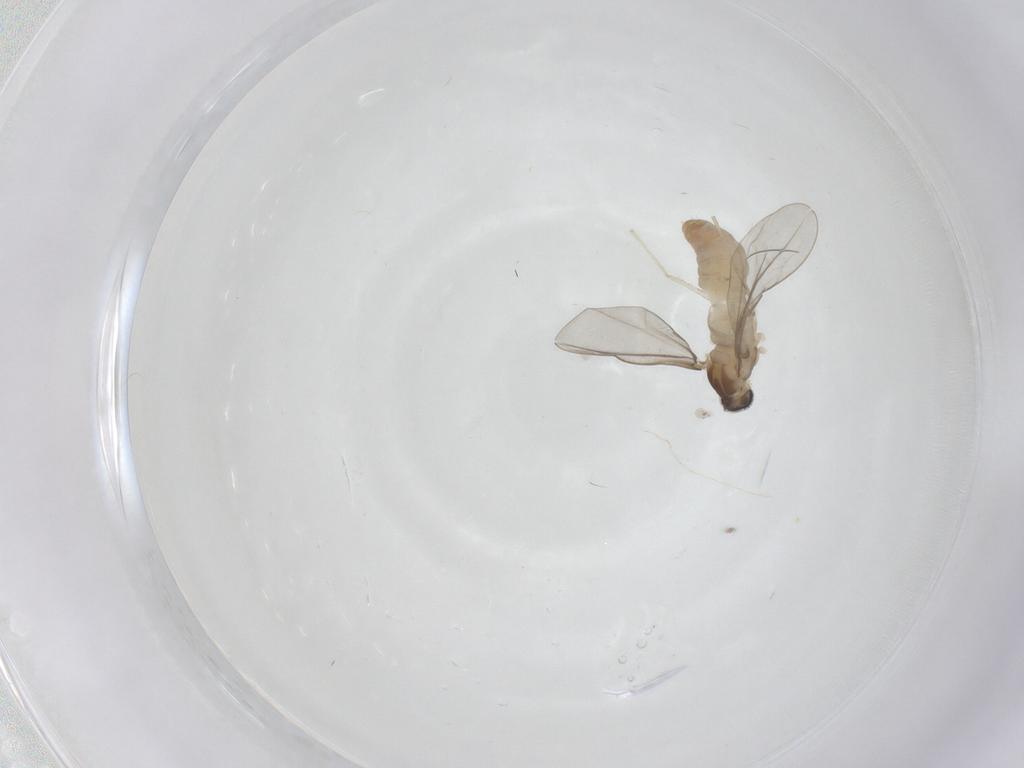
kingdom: Animalia
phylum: Arthropoda
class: Insecta
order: Diptera
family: Cecidomyiidae
